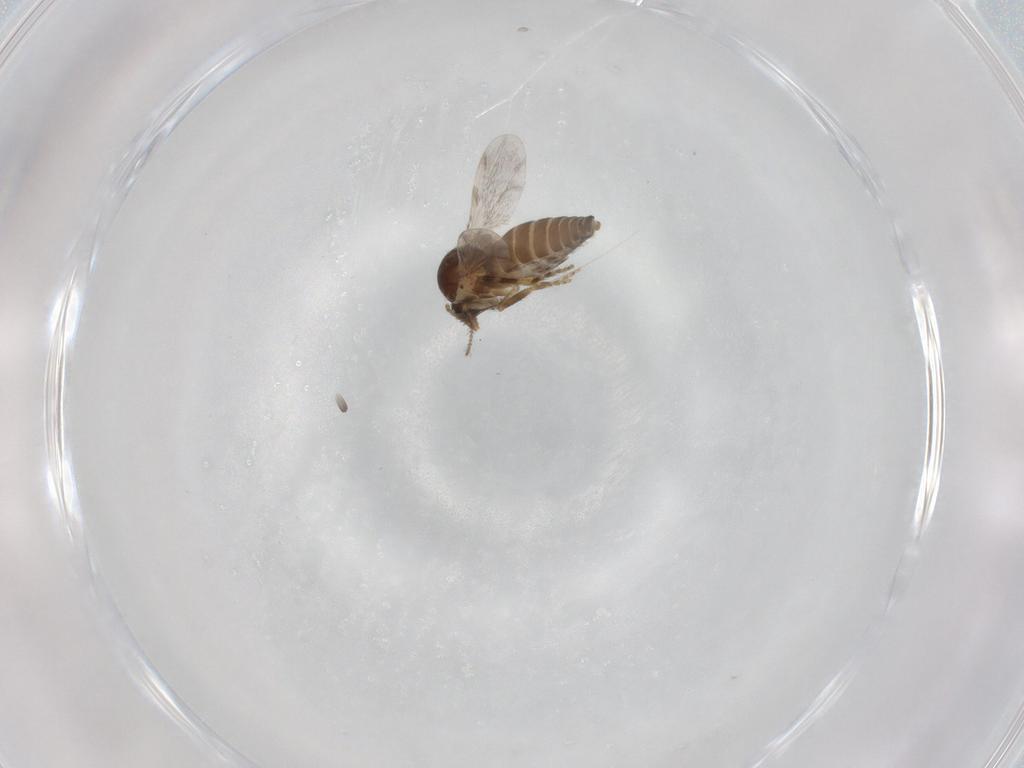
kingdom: Animalia
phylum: Arthropoda
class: Insecta
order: Diptera
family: Ceratopogonidae
